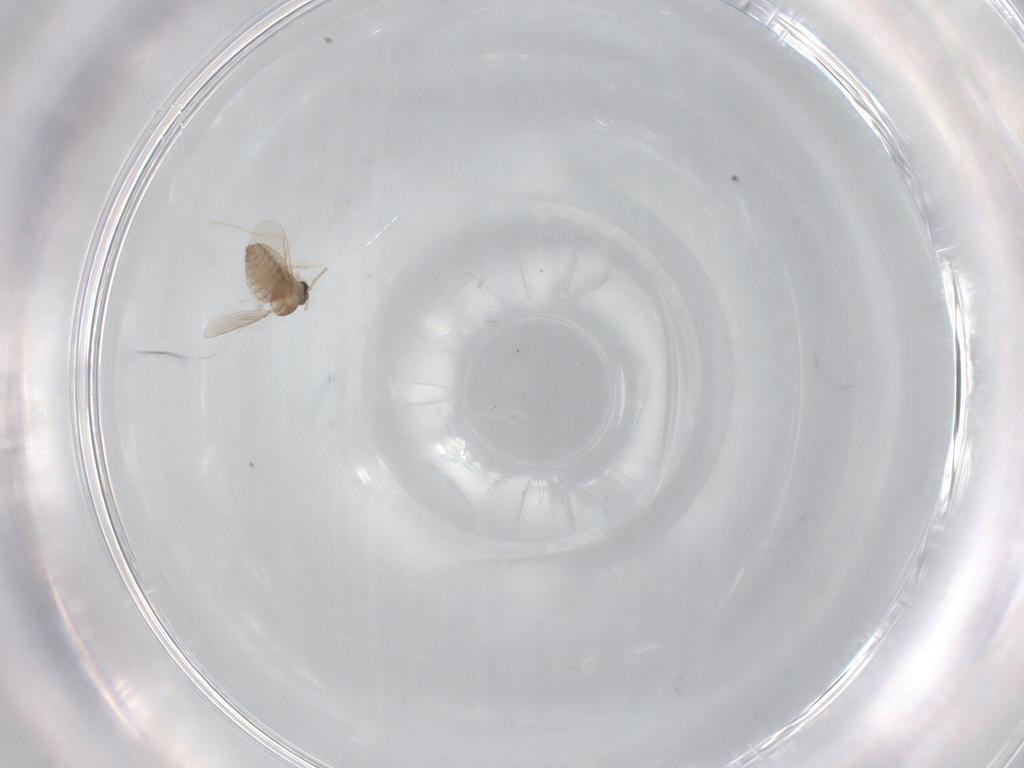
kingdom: Animalia
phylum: Arthropoda
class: Insecta
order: Diptera
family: Cecidomyiidae
